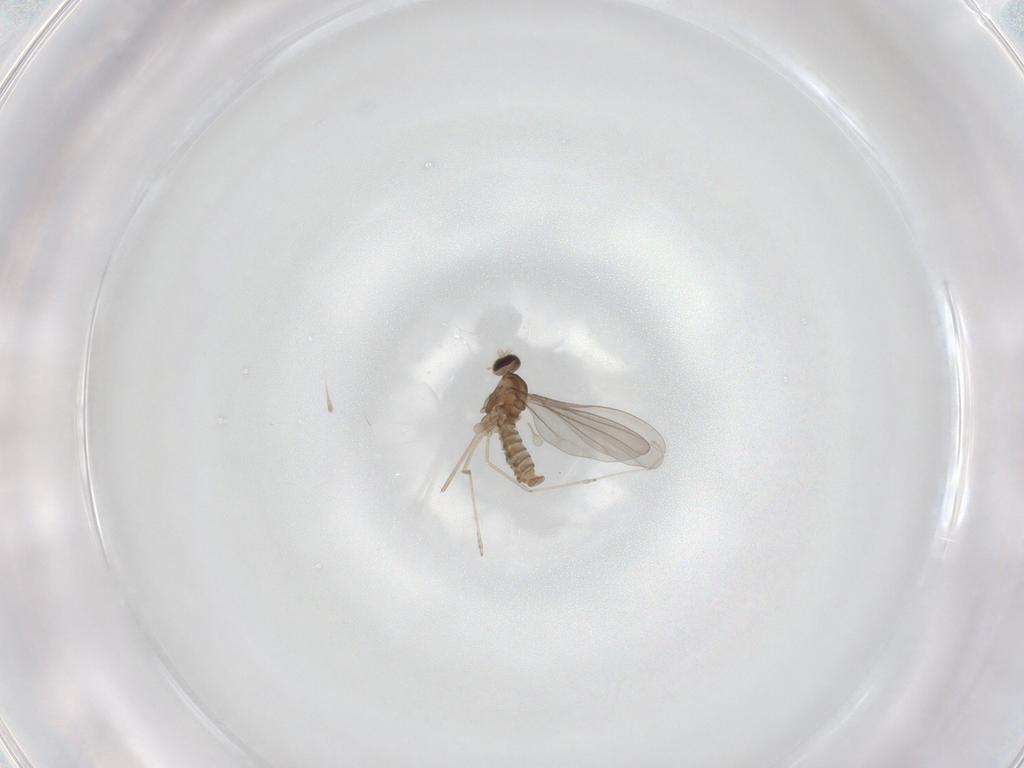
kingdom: Animalia
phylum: Arthropoda
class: Insecta
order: Diptera
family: Cecidomyiidae
